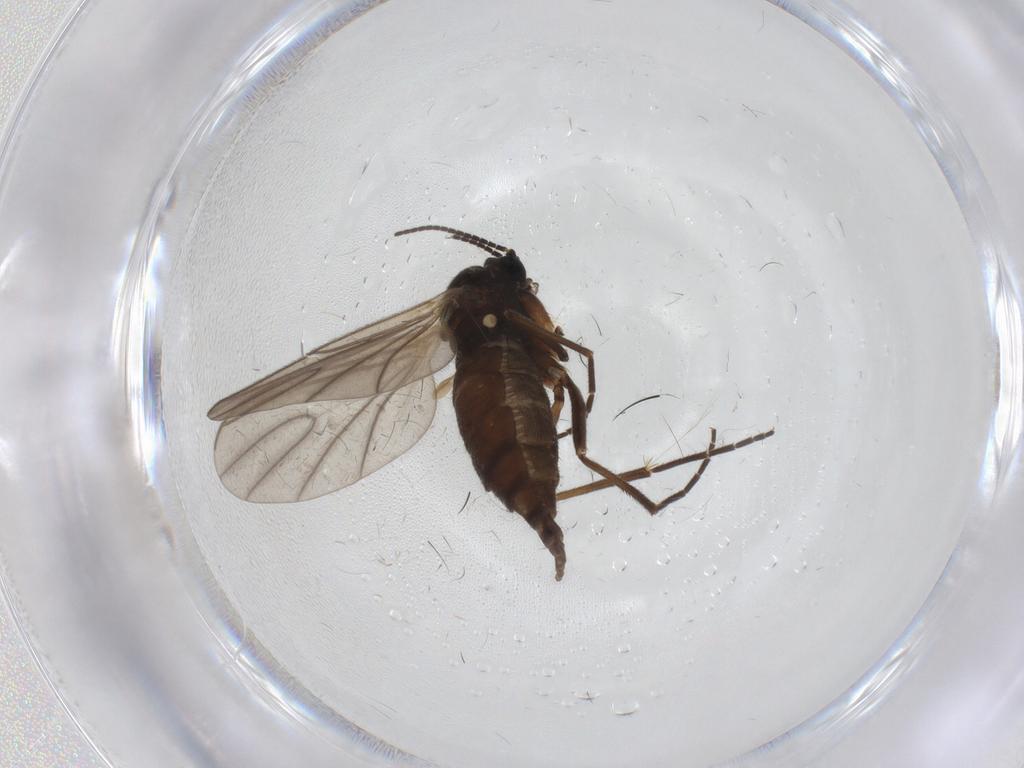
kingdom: Animalia
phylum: Arthropoda
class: Insecta
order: Diptera
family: Sciaridae
